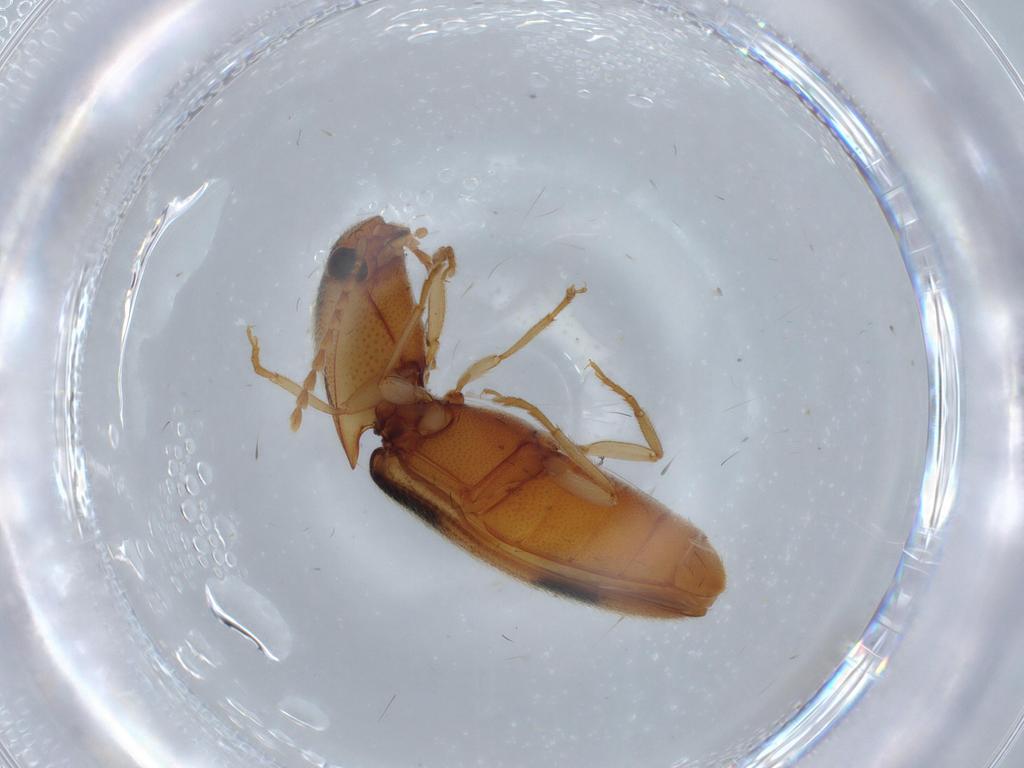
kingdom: Animalia
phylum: Arthropoda
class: Insecta
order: Coleoptera
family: Elateridae
